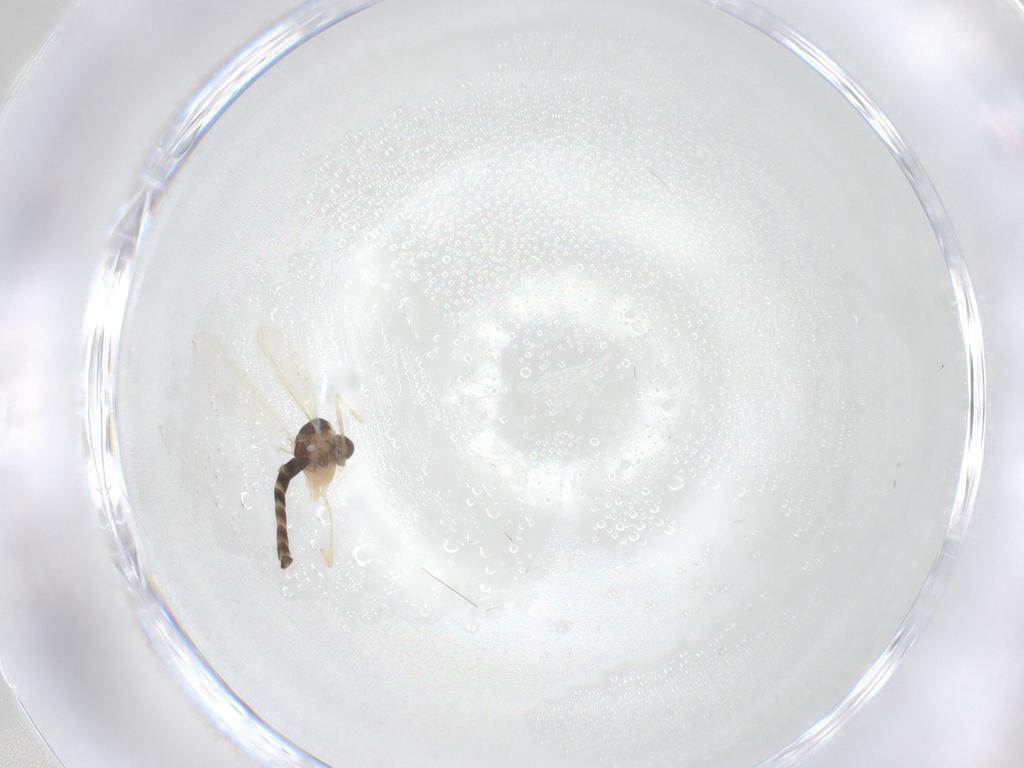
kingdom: Animalia
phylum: Arthropoda
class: Insecta
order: Diptera
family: Chironomidae
